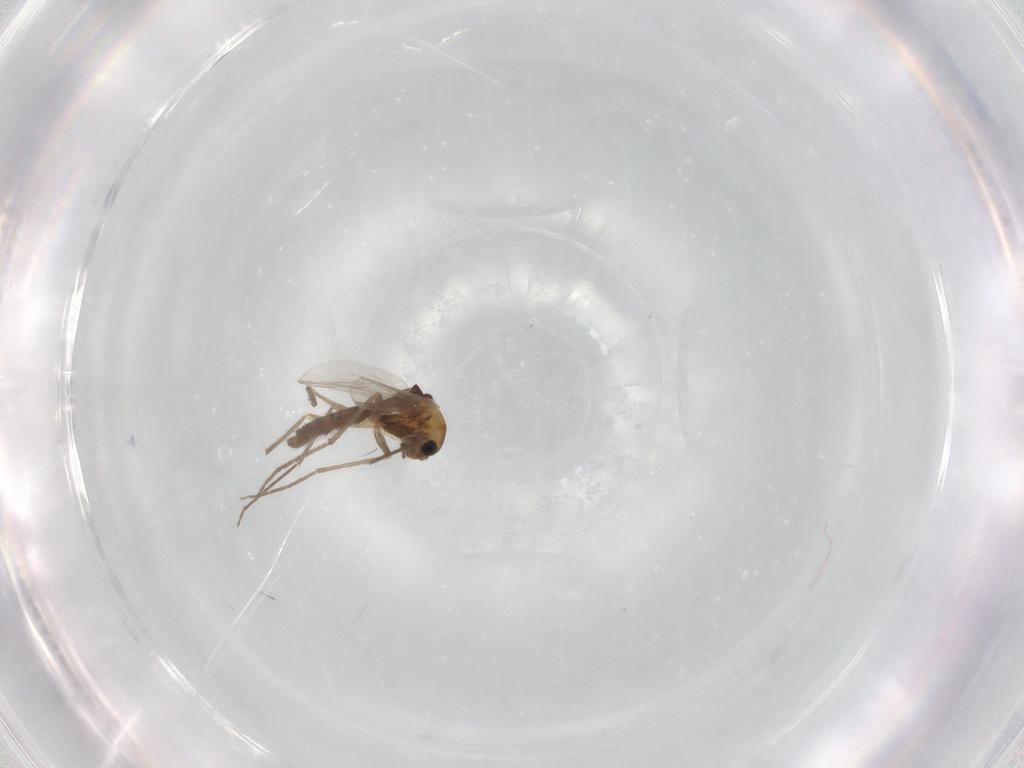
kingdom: Animalia
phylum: Arthropoda
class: Insecta
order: Diptera
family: Chironomidae
